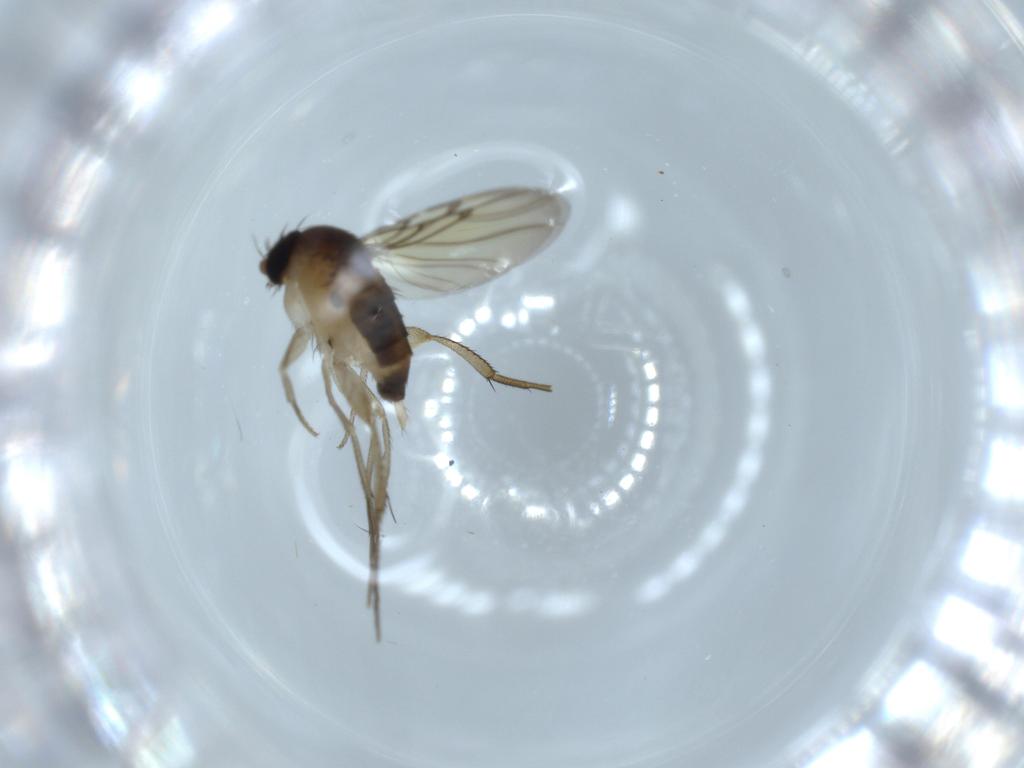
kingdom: Animalia
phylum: Arthropoda
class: Insecta
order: Diptera
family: Phoridae
